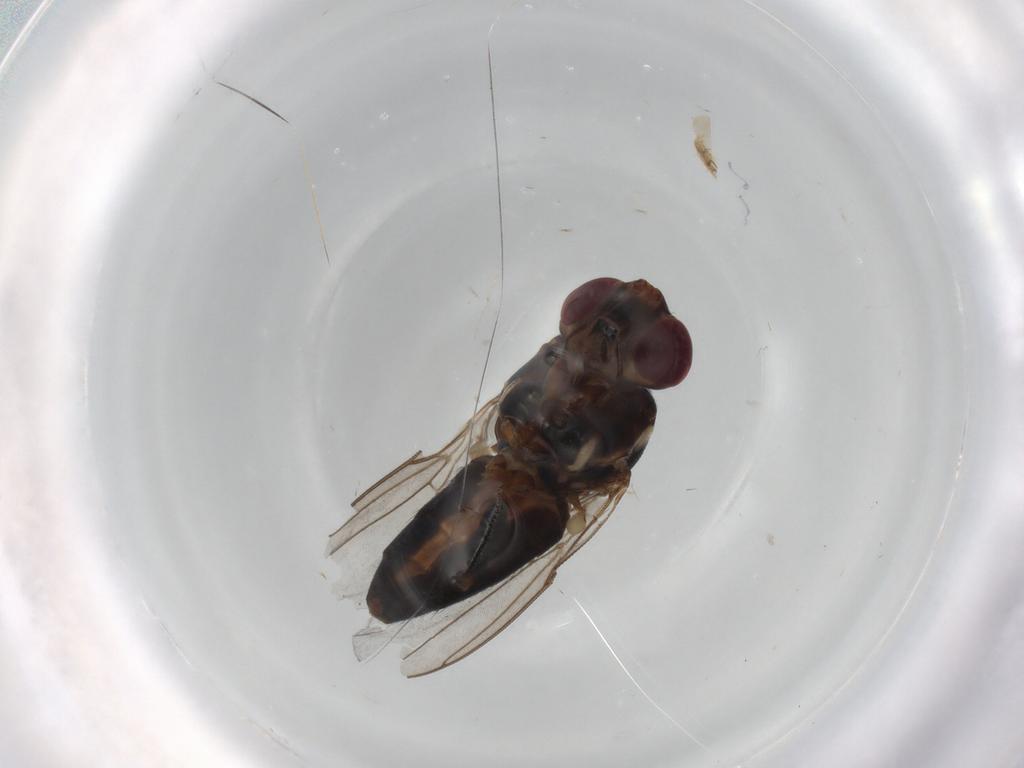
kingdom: Animalia
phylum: Arthropoda
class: Insecta
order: Diptera
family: Chloropidae
